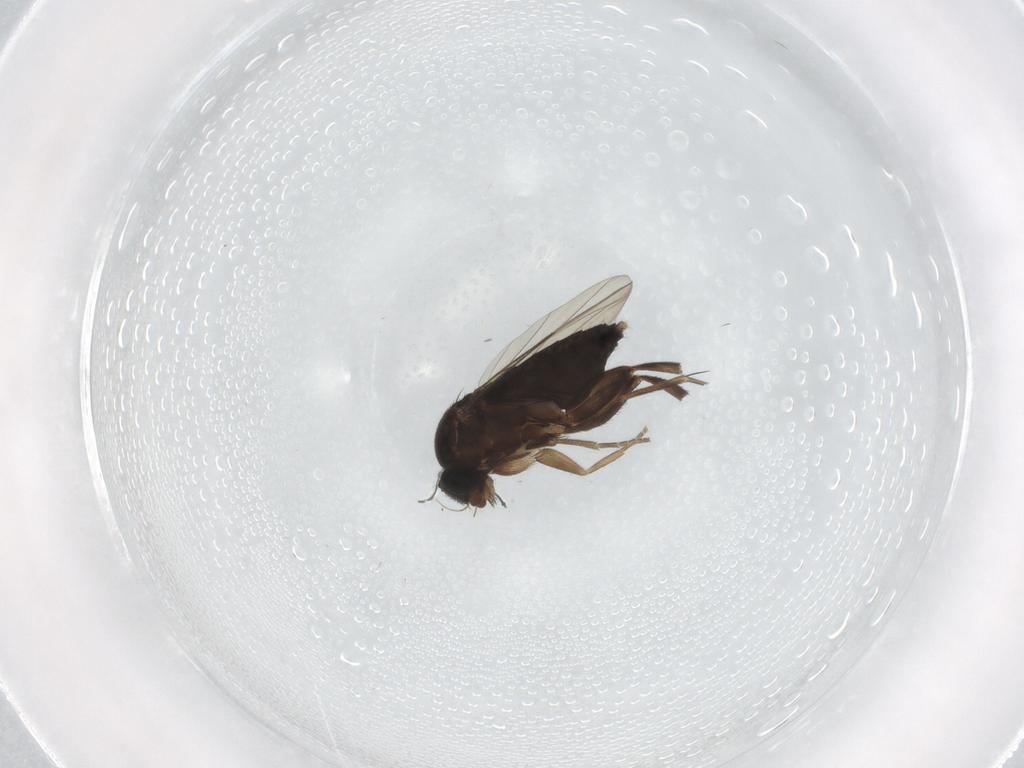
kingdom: Animalia
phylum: Arthropoda
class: Insecta
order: Diptera
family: Phoridae
